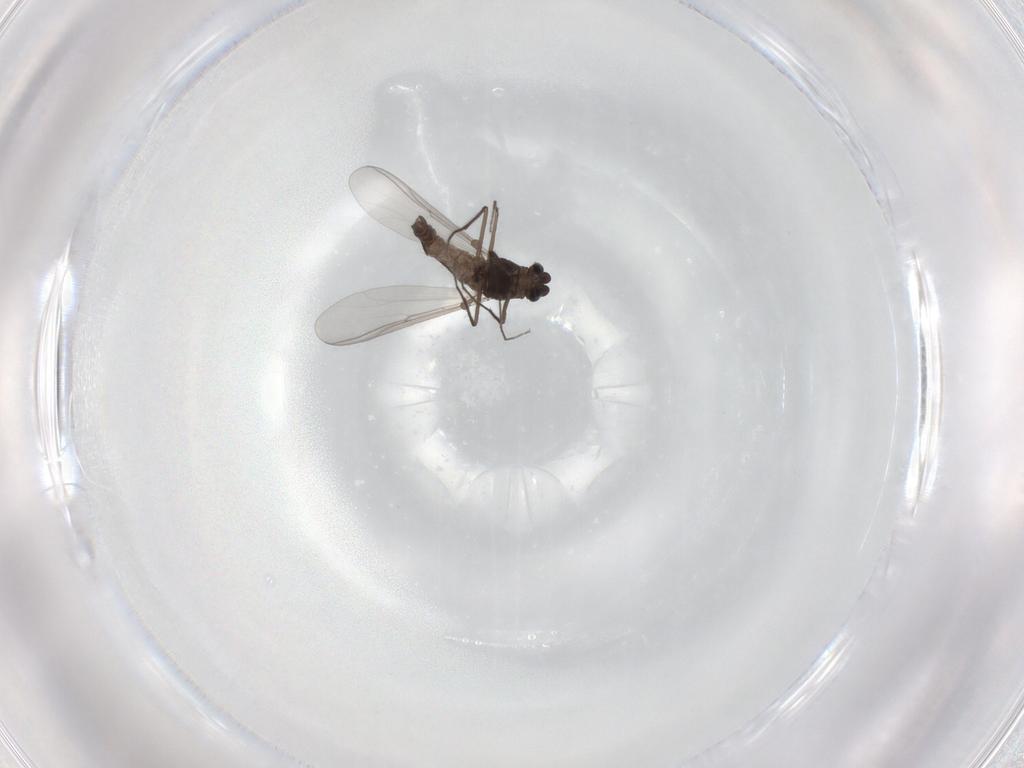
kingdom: Animalia
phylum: Arthropoda
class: Insecta
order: Diptera
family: Chironomidae
